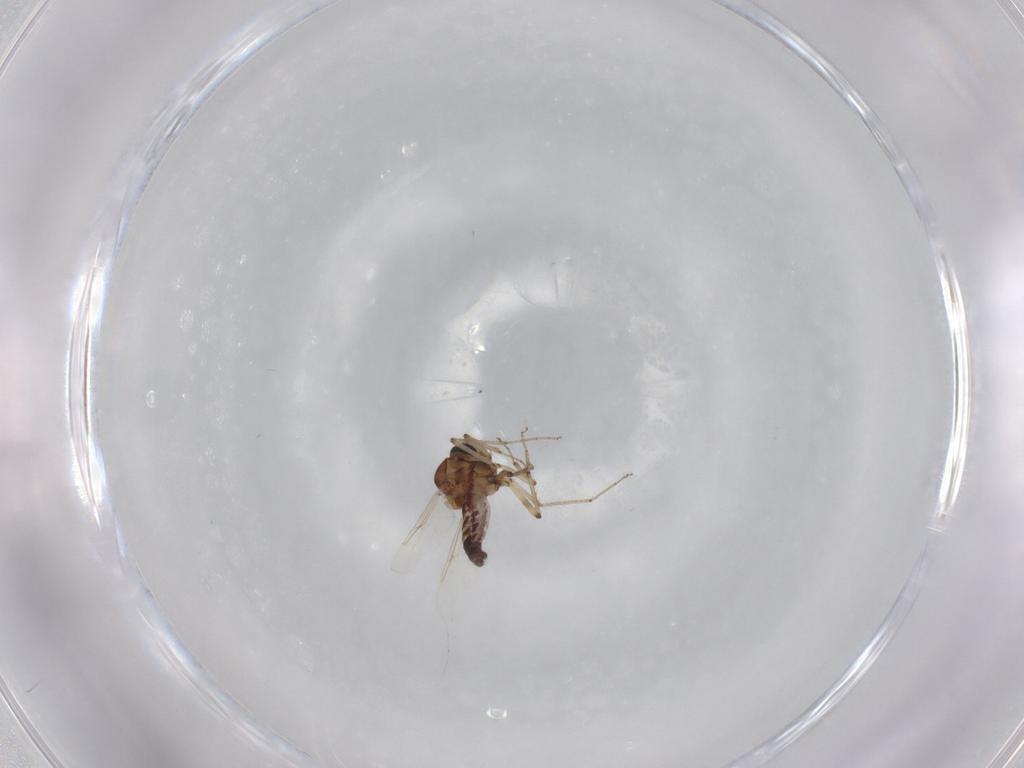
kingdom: Animalia
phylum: Arthropoda
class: Insecta
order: Diptera
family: Ceratopogonidae
